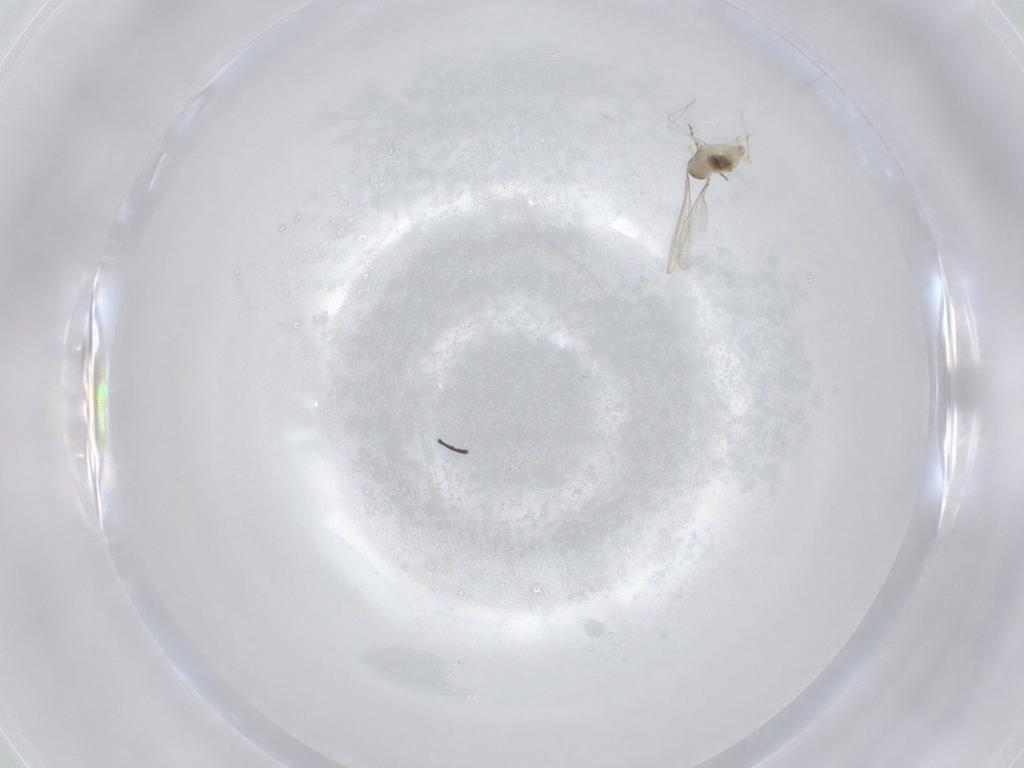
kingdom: Animalia
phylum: Arthropoda
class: Insecta
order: Diptera
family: Cecidomyiidae
